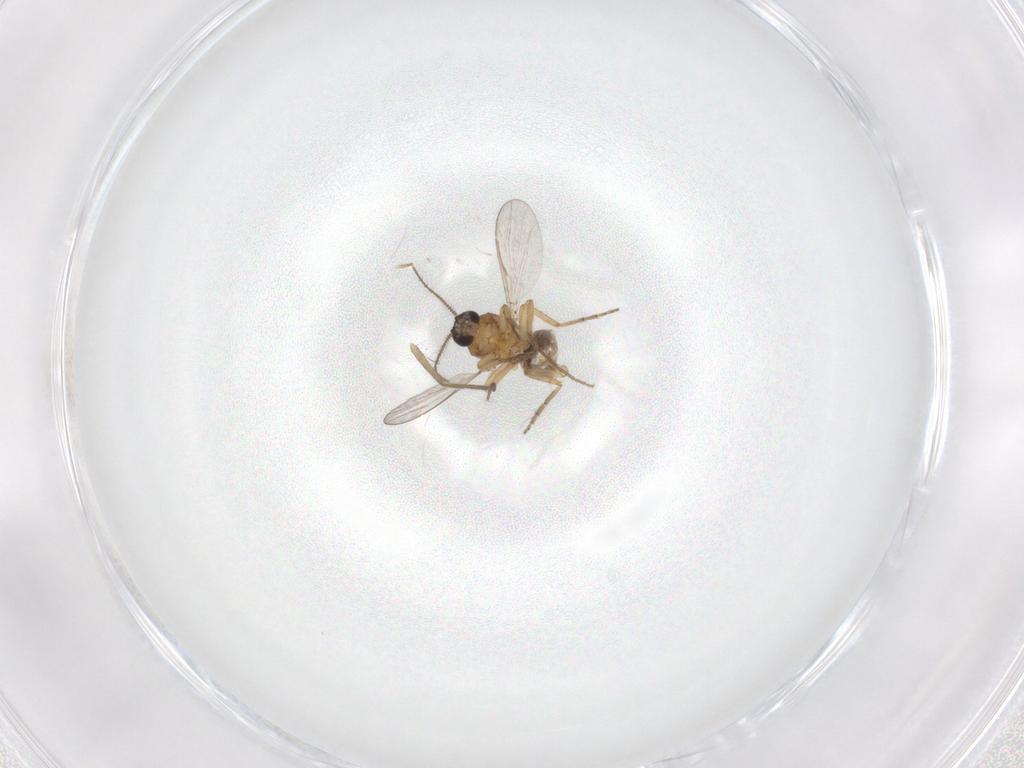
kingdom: Animalia
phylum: Arthropoda
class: Insecta
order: Diptera
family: Chironomidae
